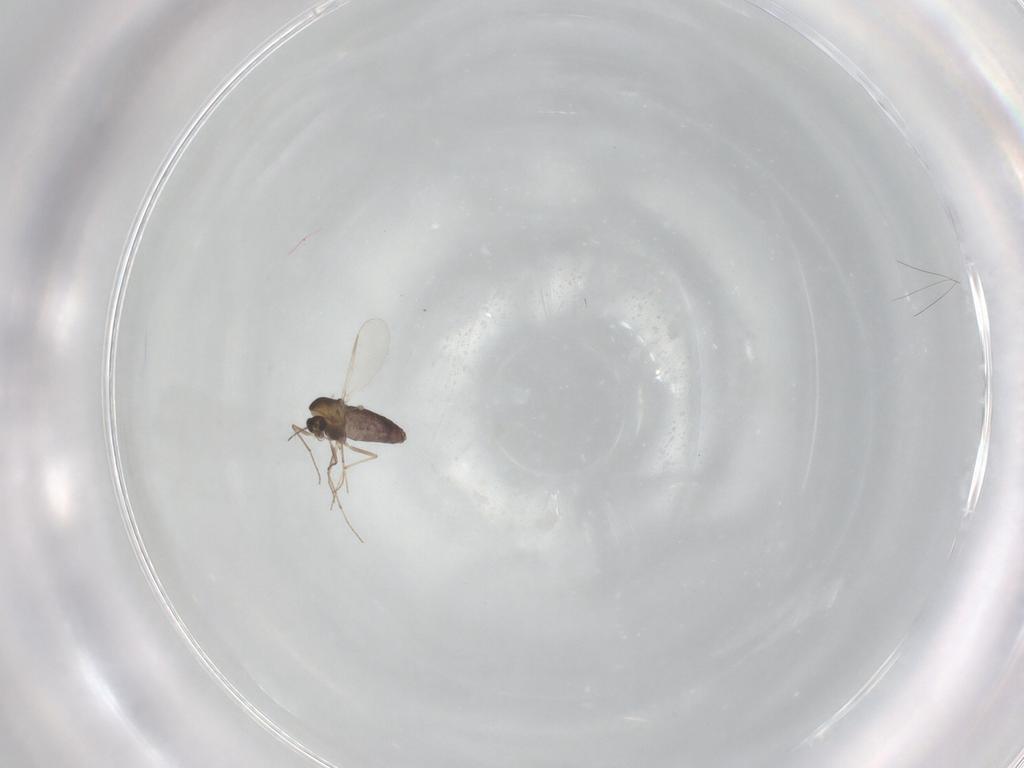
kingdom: Animalia
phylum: Arthropoda
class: Insecta
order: Diptera
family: Chironomidae
